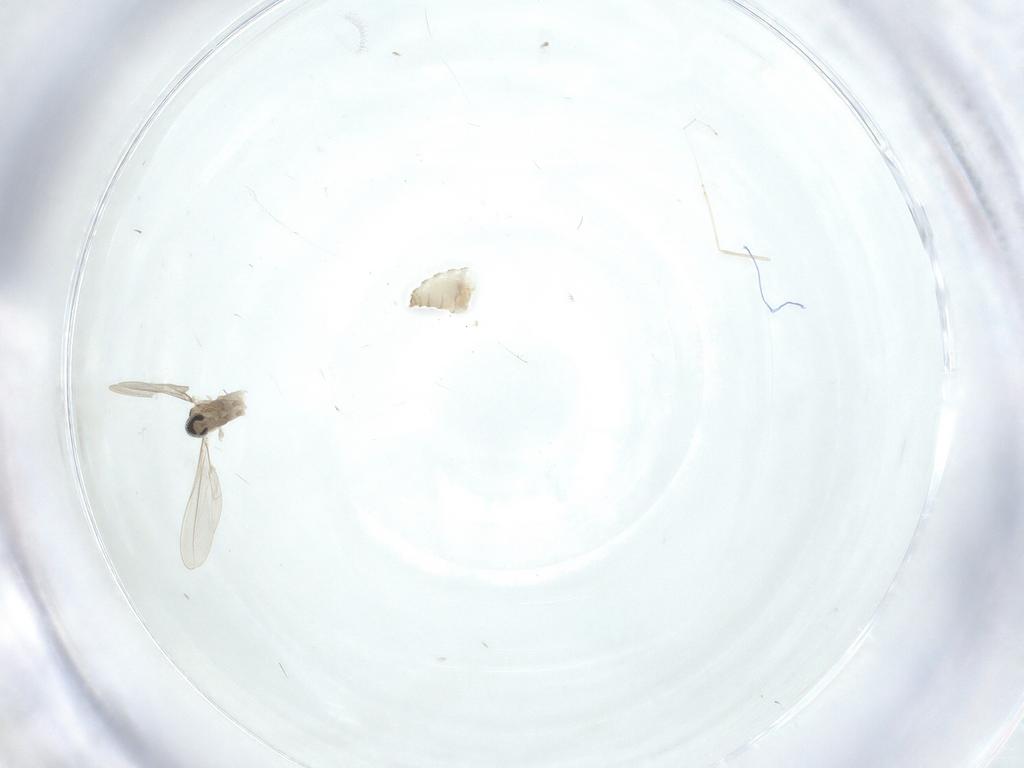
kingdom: Animalia
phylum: Arthropoda
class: Insecta
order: Diptera
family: Cecidomyiidae
